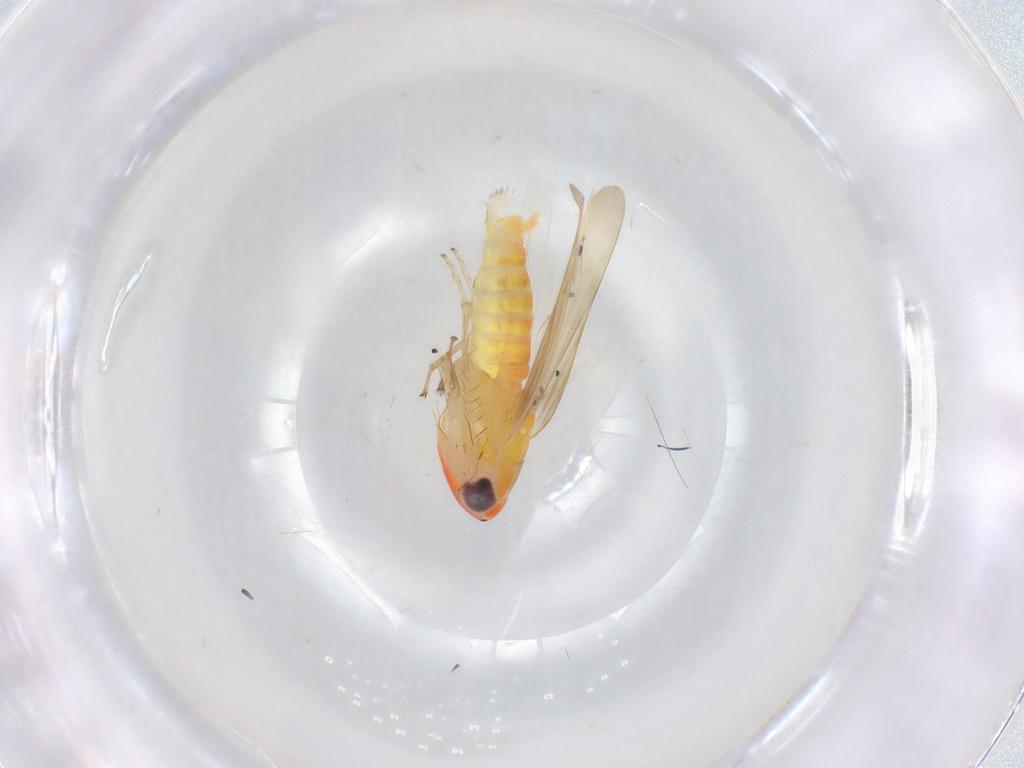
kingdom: Animalia
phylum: Arthropoda
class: Insecta
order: Hemiptera
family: Cicadellidae
